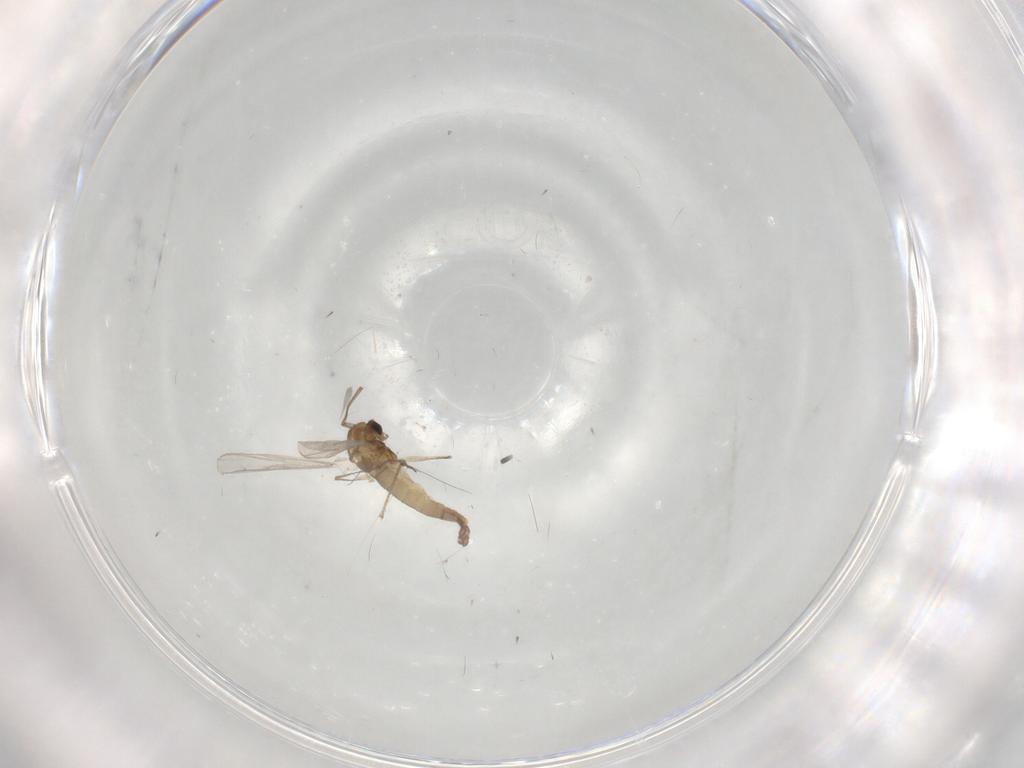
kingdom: Animalia
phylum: Arthropoda
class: Insecta
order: Diptera
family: Chironomidae
